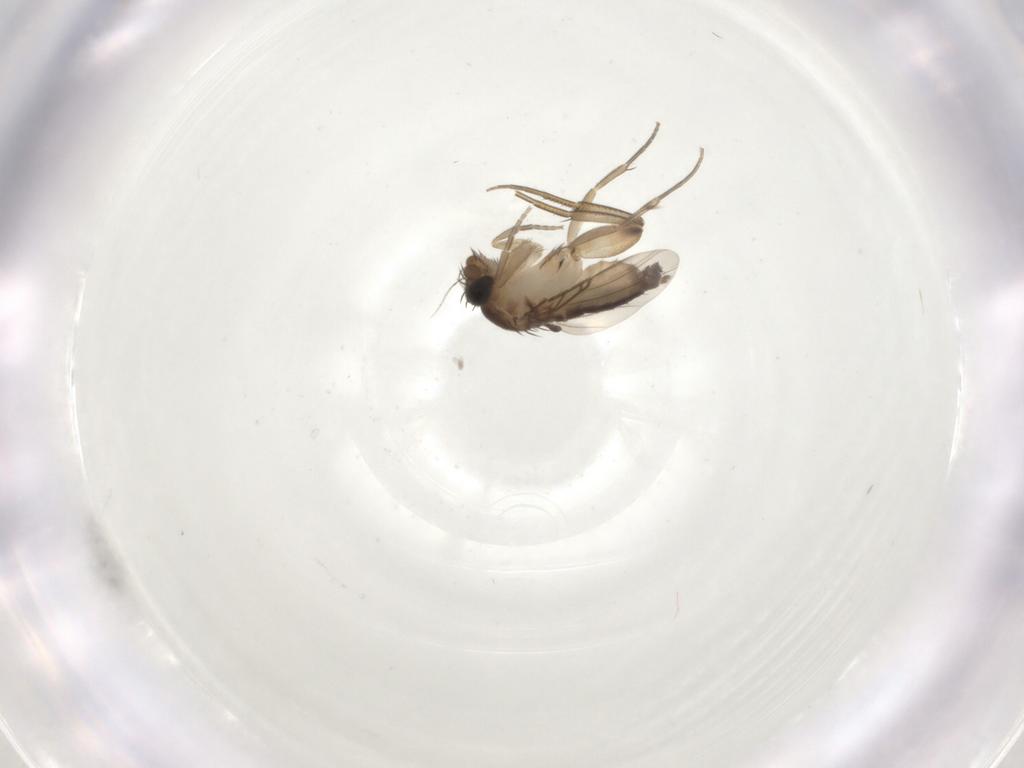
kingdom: Animalia
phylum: Arthropoda
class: Insecta
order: Diptera
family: Phoridae
